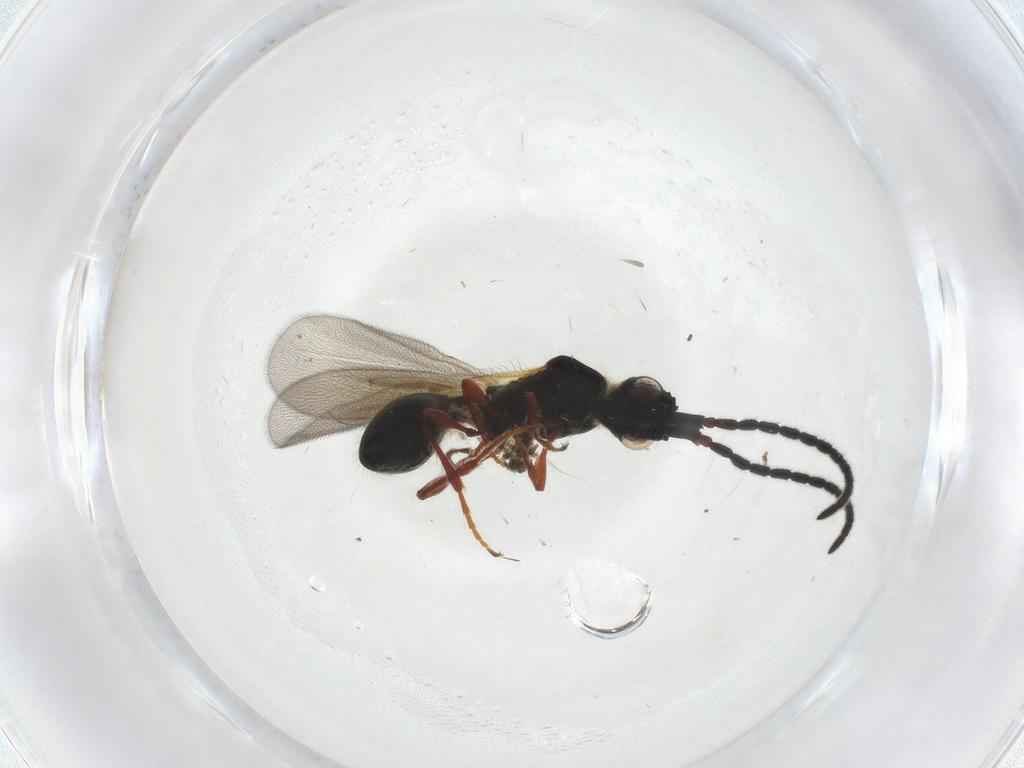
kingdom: Animalia
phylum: Arthropoda
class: Insecta
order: Hymenoptera
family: Diapriidae
